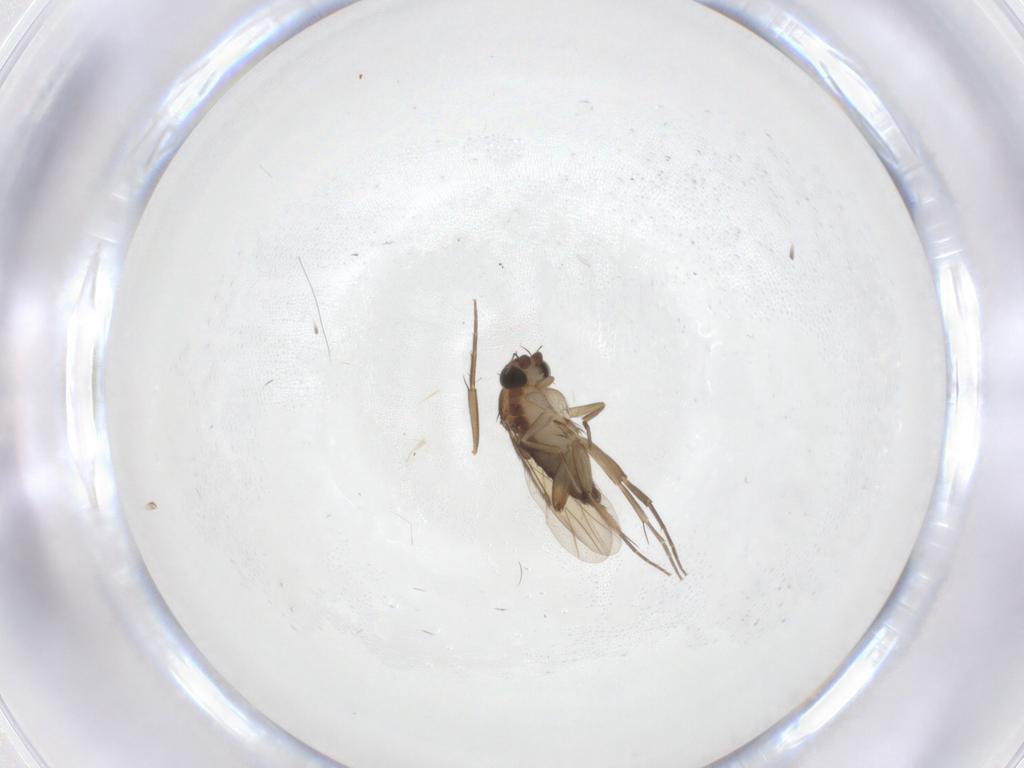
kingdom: Animalia
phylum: Arthropoda
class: Insecta
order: Diptera
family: Phoridae
